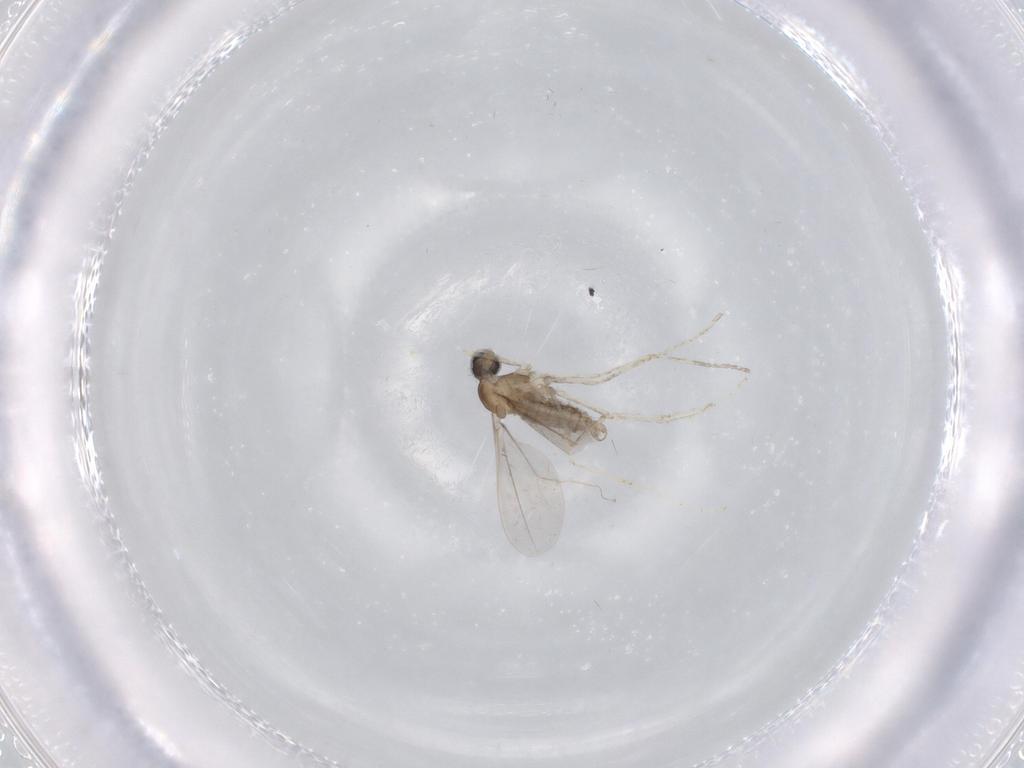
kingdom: Animalia
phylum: Arthropoda
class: Insecta
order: Diptera
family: Cecidomyiidae
